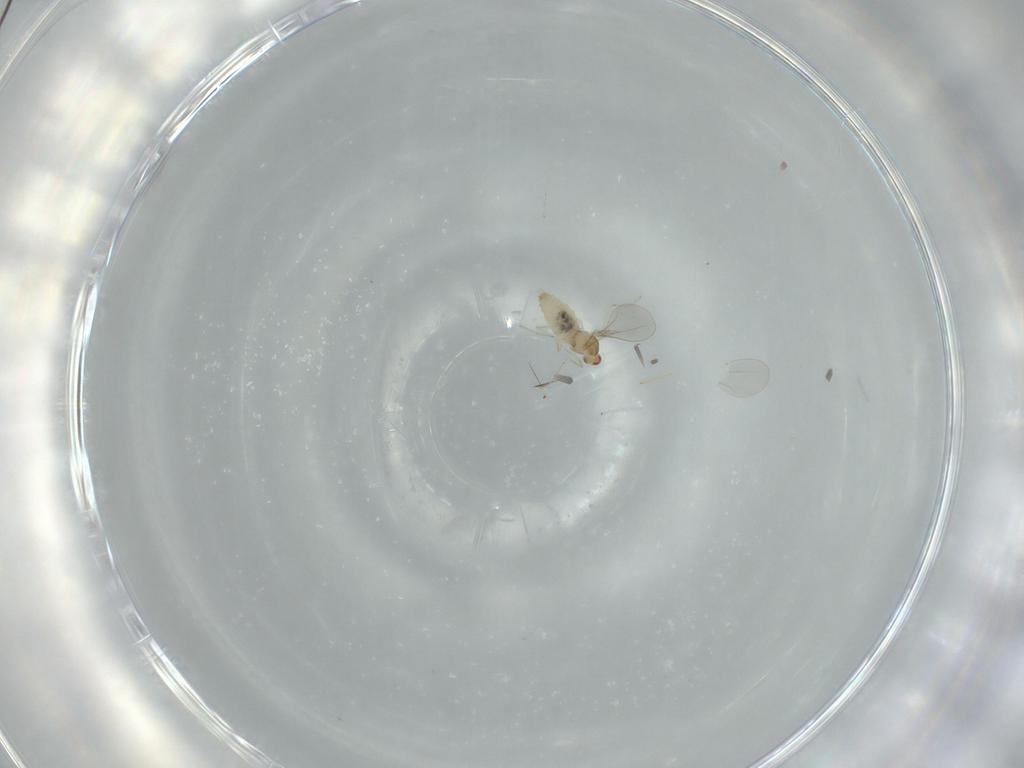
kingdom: Animalia
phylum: Arthropoda
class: Insecta
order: Diptera
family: Cecidomyiidae
